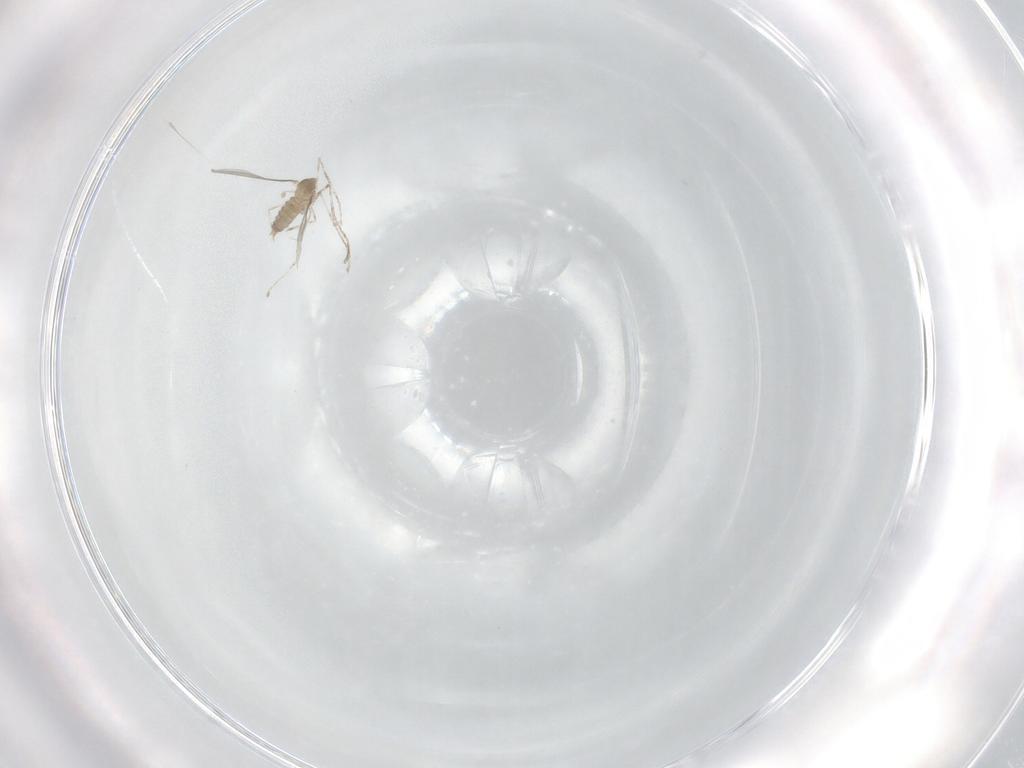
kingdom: Animalia
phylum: Arthropoda
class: Insecta
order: Diptera
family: Cecidomyiidae
